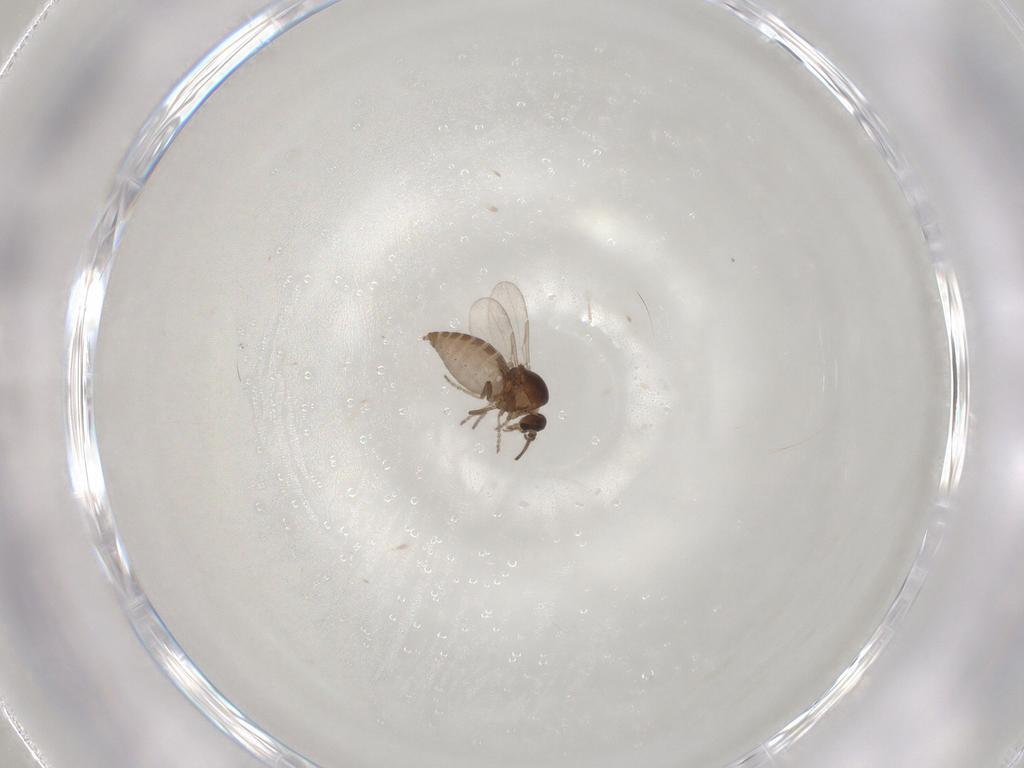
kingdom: Animalia
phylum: Arthropoda
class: Insecta
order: Diptera
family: Ceratopogonidae
